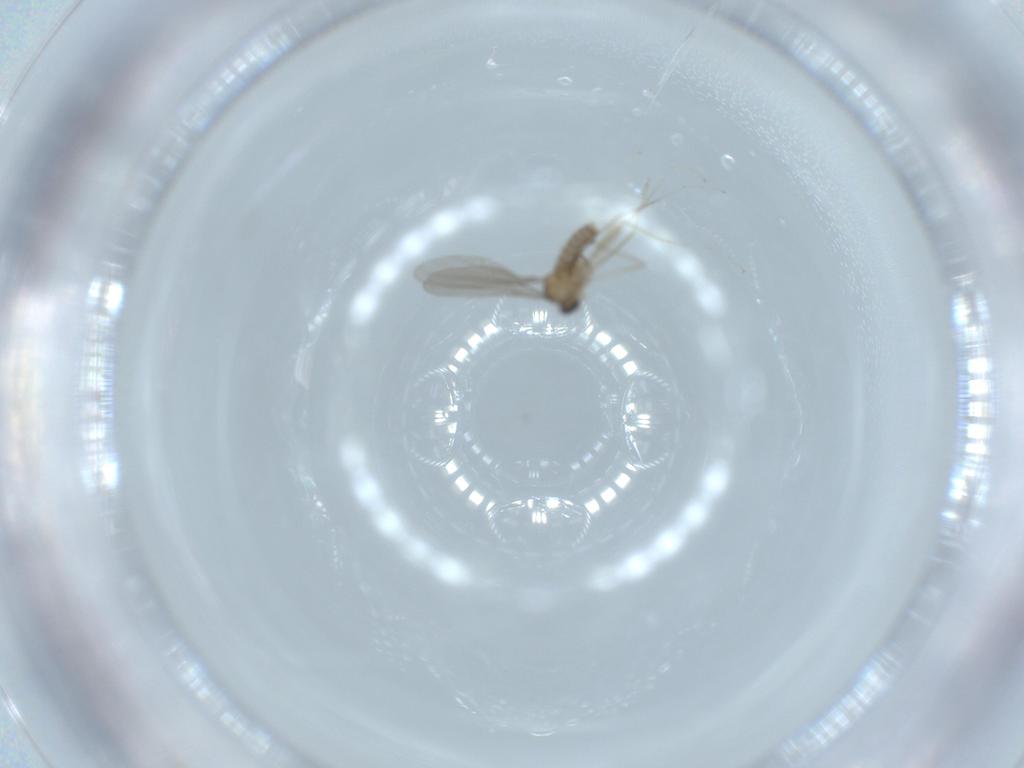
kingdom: Animalia
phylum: Arthropoda
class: Insecta
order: Diptera
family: Cecidomyiidae
